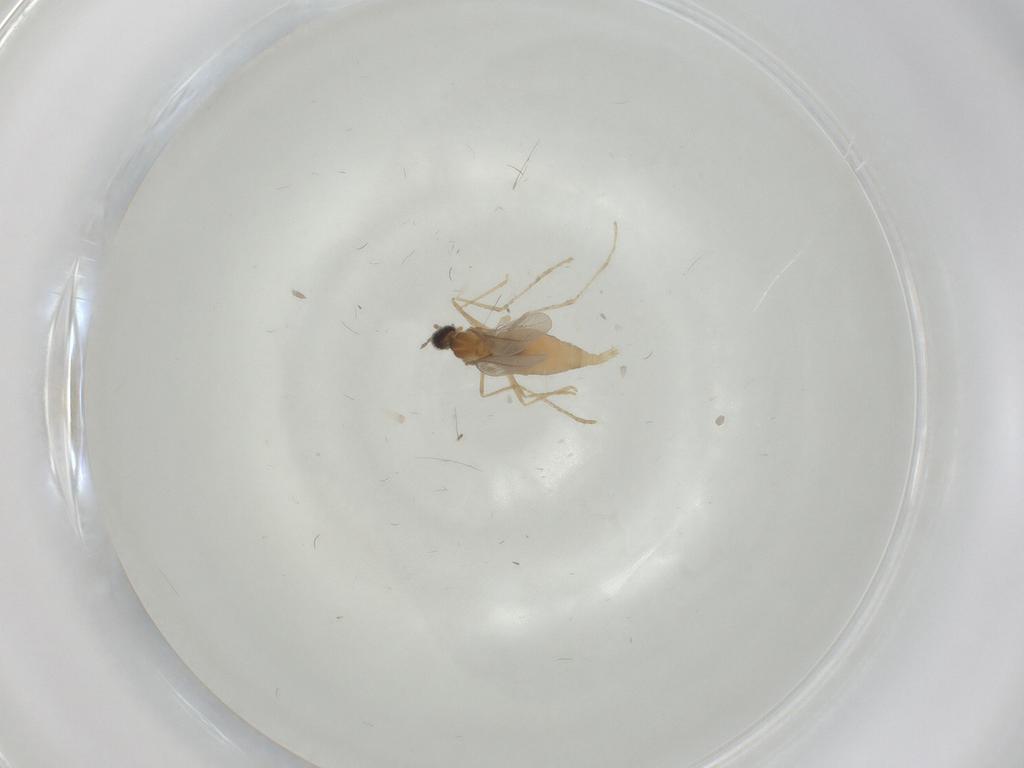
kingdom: Animalia
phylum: Arthropoda
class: Insecta
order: Diptera
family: Cecidomyiidae
